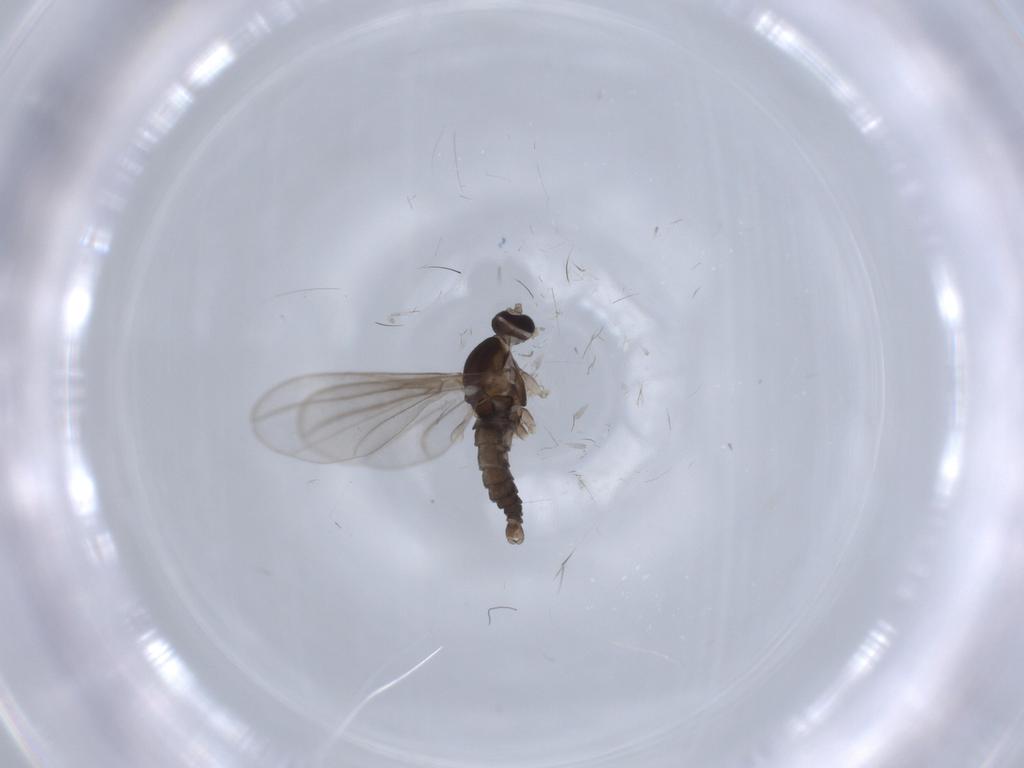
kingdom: Animalia
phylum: Arthropoda
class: Insecta
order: Diptera
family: Cecidomyiidae
